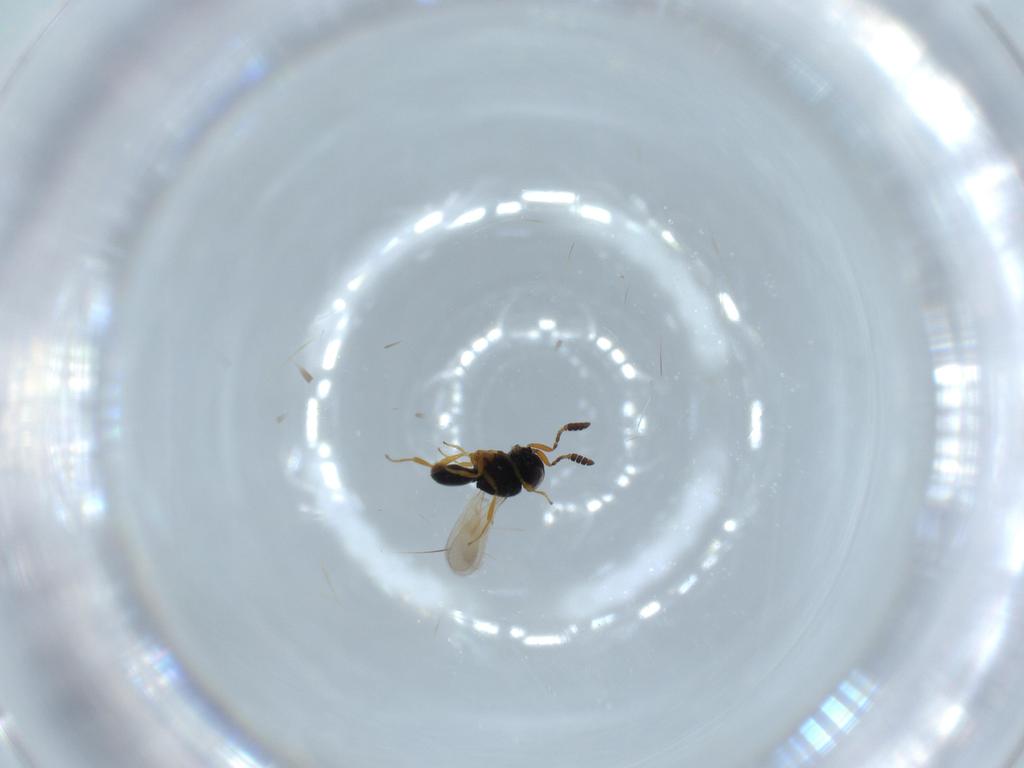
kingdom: Animalia
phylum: Arthropoda
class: Insecta
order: Hymenoptera
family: Scelionidae
